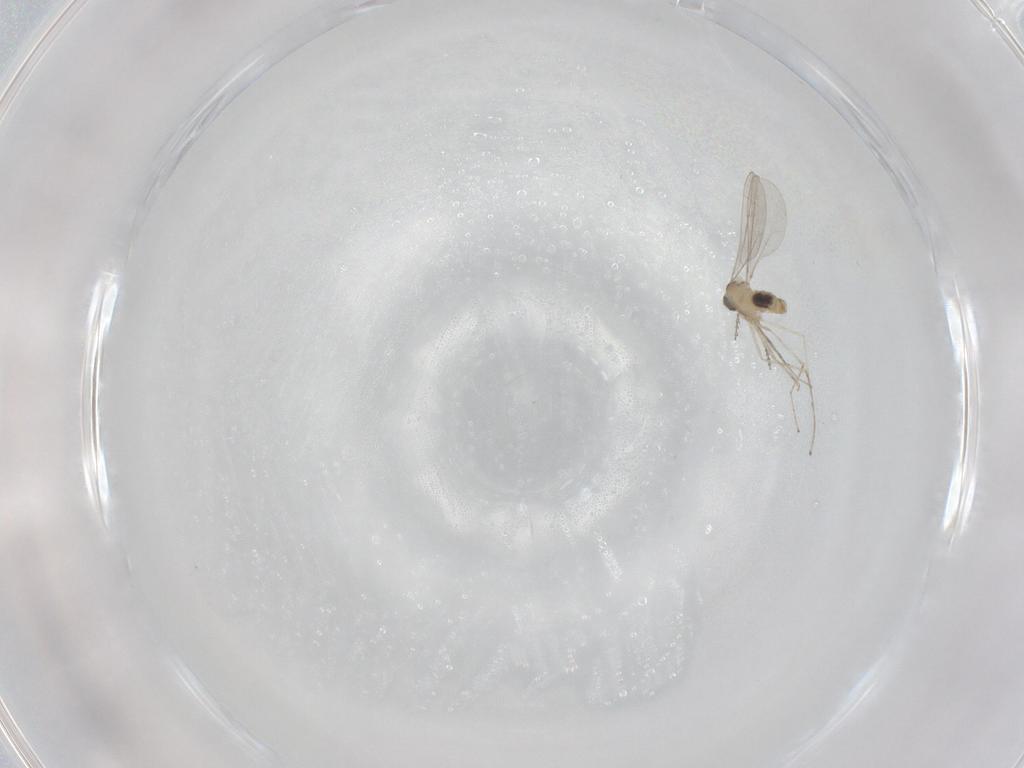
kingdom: Animalia
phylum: Arthropoda
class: Insecta
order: Diptera
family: Cecidomyiidae
